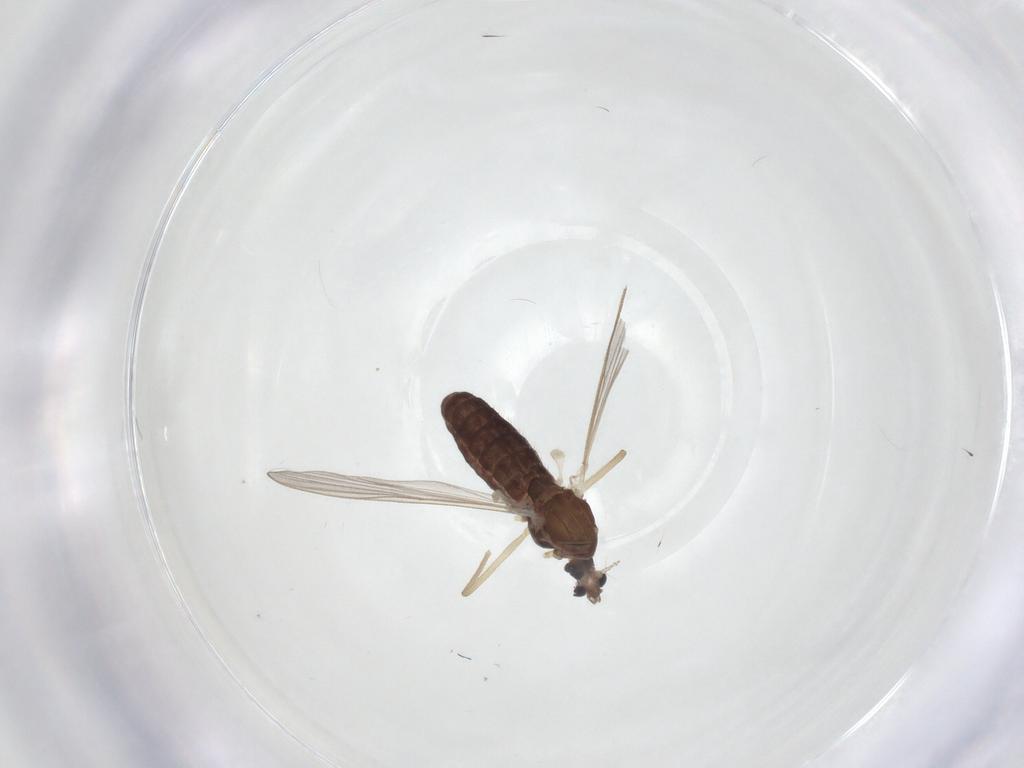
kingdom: Animalia
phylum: Arthropoda
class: Insecta
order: Diptera
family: Chironomidae
